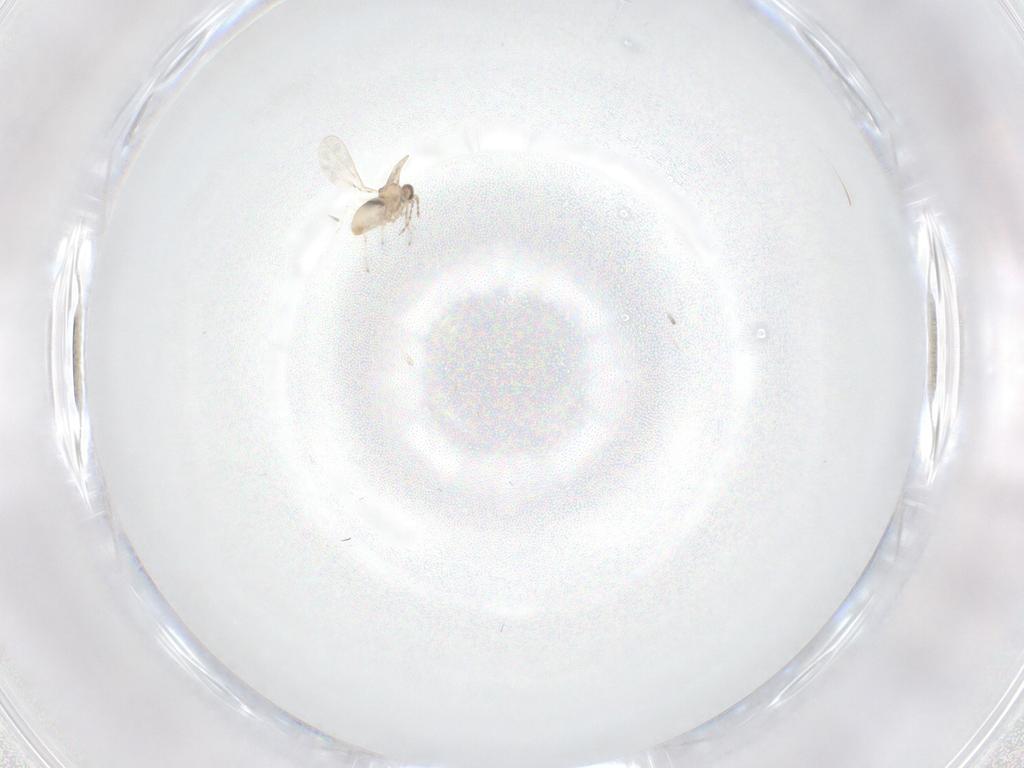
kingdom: Animalia
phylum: Arthropoda
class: Insecta
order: Diptera
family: Cecidomyiidae
